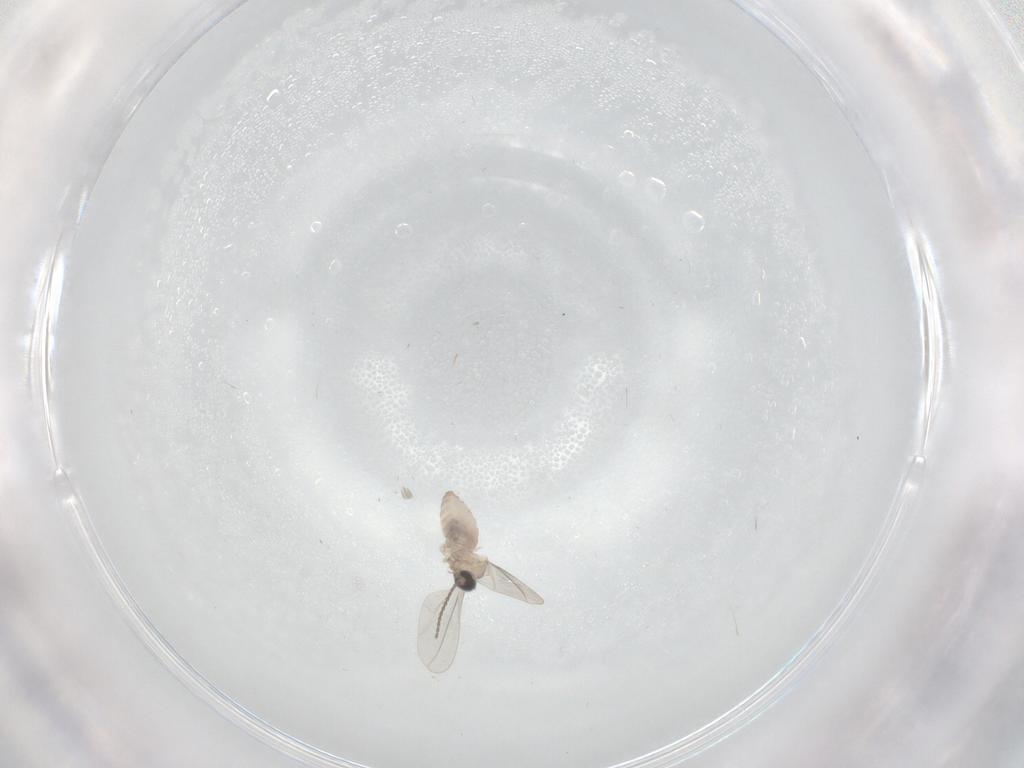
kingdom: Animalia
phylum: Arthropoda
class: Insecta
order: Diptera
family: Cecidomyiidae
